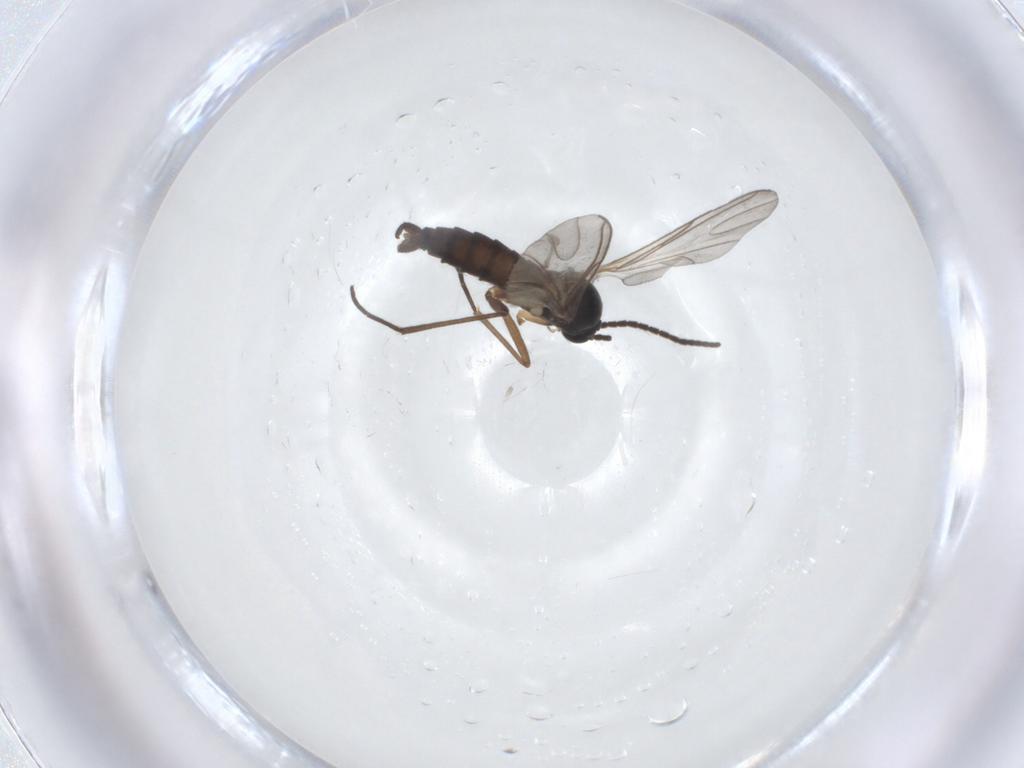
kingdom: Animalia
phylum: Arthropoda
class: Insecta
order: Diptera
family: Sciaridae
